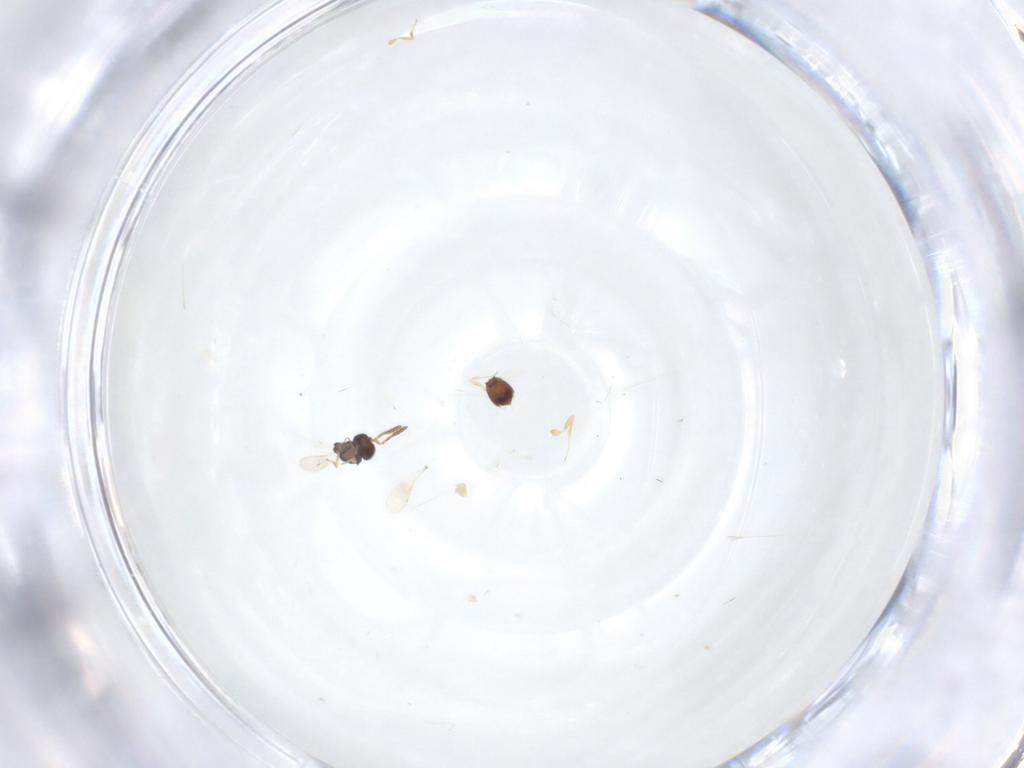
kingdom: Animalia
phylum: Arthropoda
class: Insecta
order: Hymenoptera
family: Scelionidae
